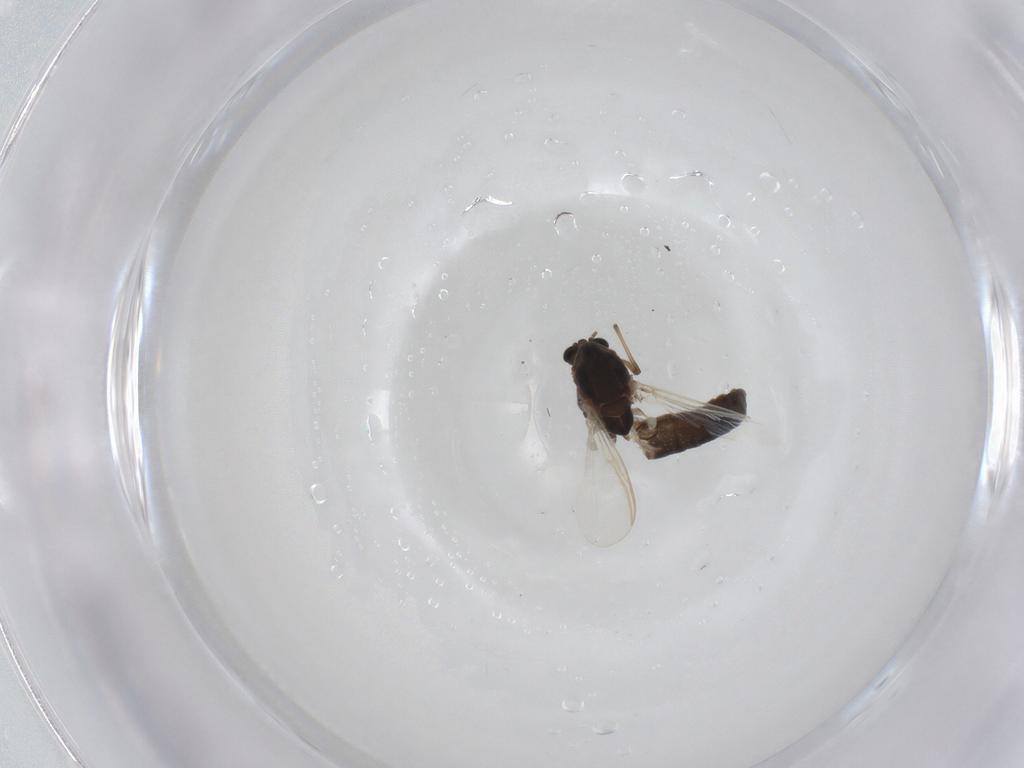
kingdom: Animalia
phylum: Arthropoda
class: Insecta
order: Diptera
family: Chironomidae
